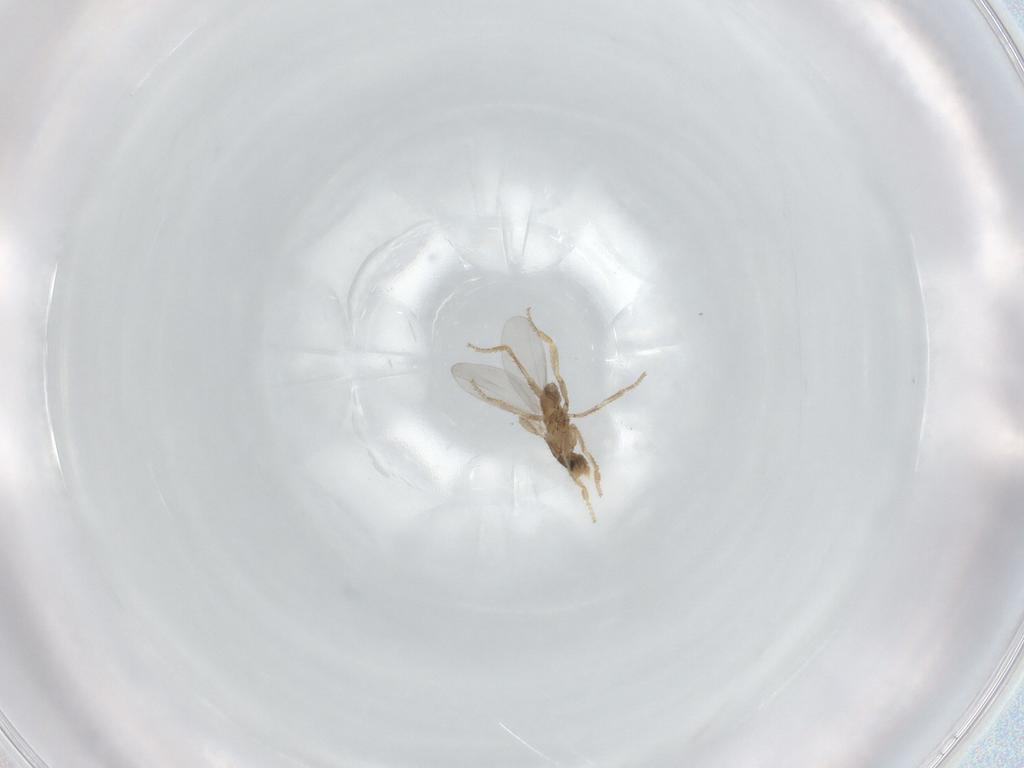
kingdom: Animalia
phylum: Arthropoda
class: Insecta
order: Diptera
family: Phoridae
